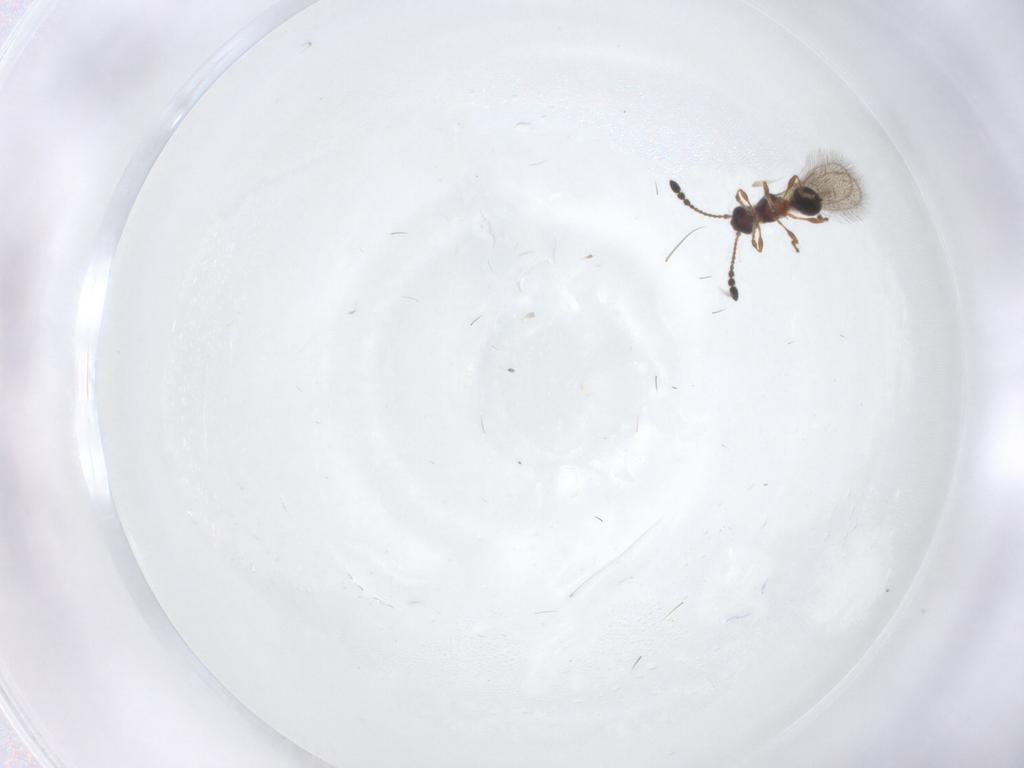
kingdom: Animalia
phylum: Arthropoda
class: Insecta
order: Hymenoptera
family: Diapriidae
